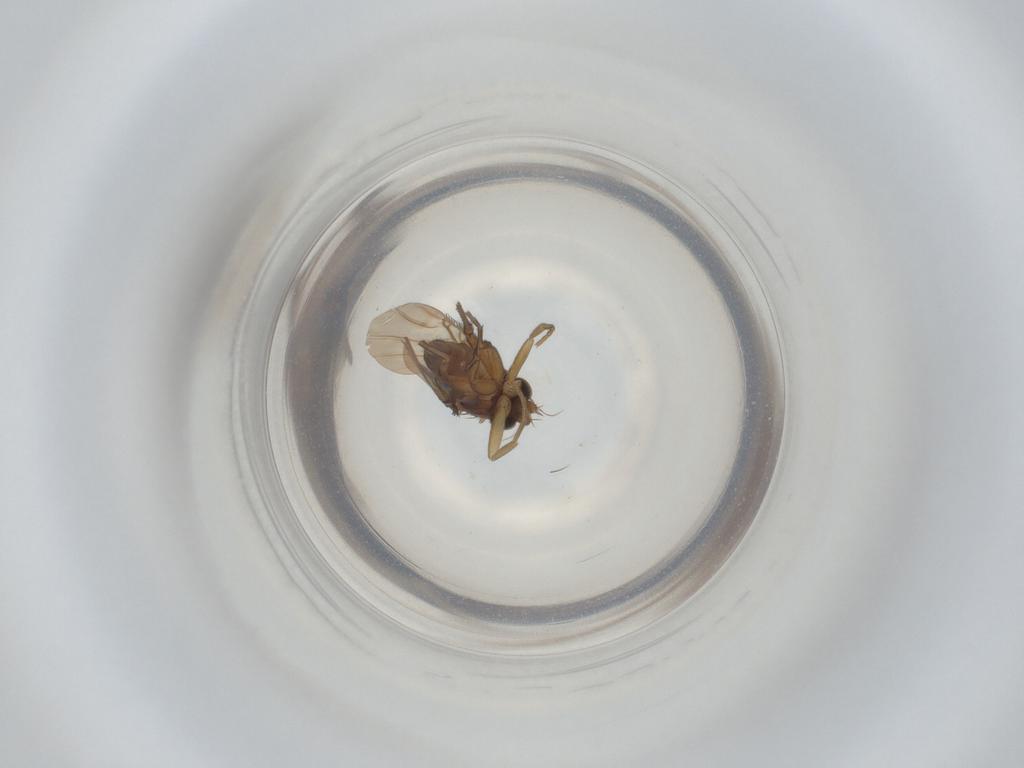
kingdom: Animalia
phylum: Arthropoda
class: Insecta
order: Diptera
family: Phoridae
